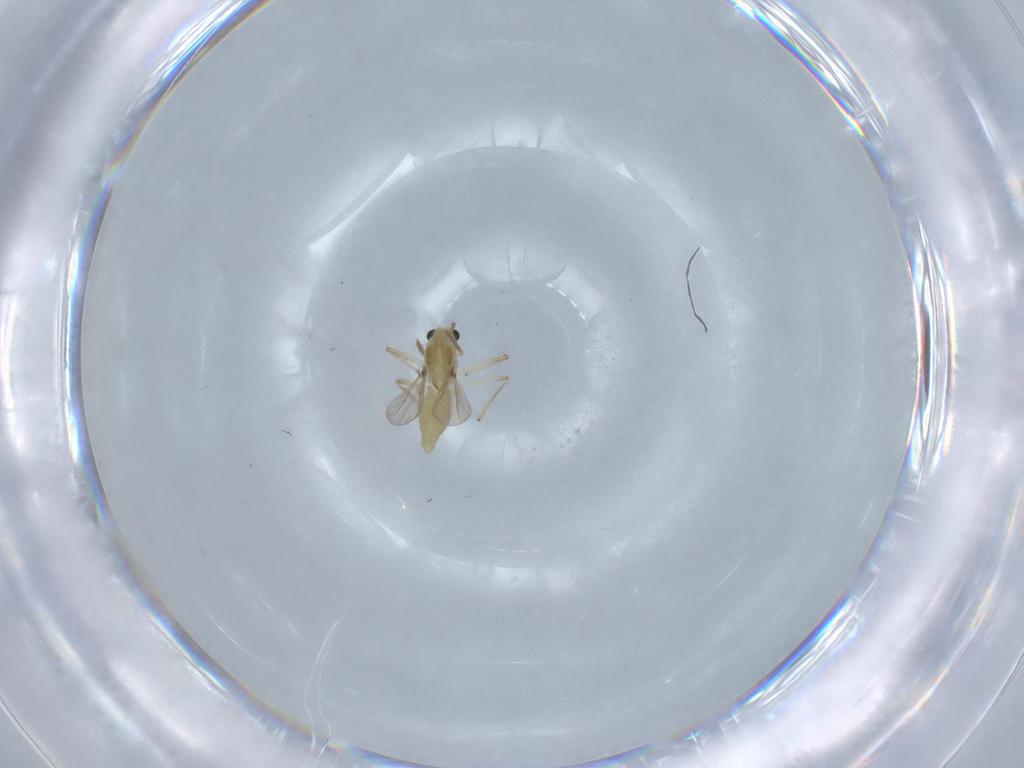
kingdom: Animalia
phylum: Arthropoda
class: Insecta
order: Diptera
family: Chironomidae
